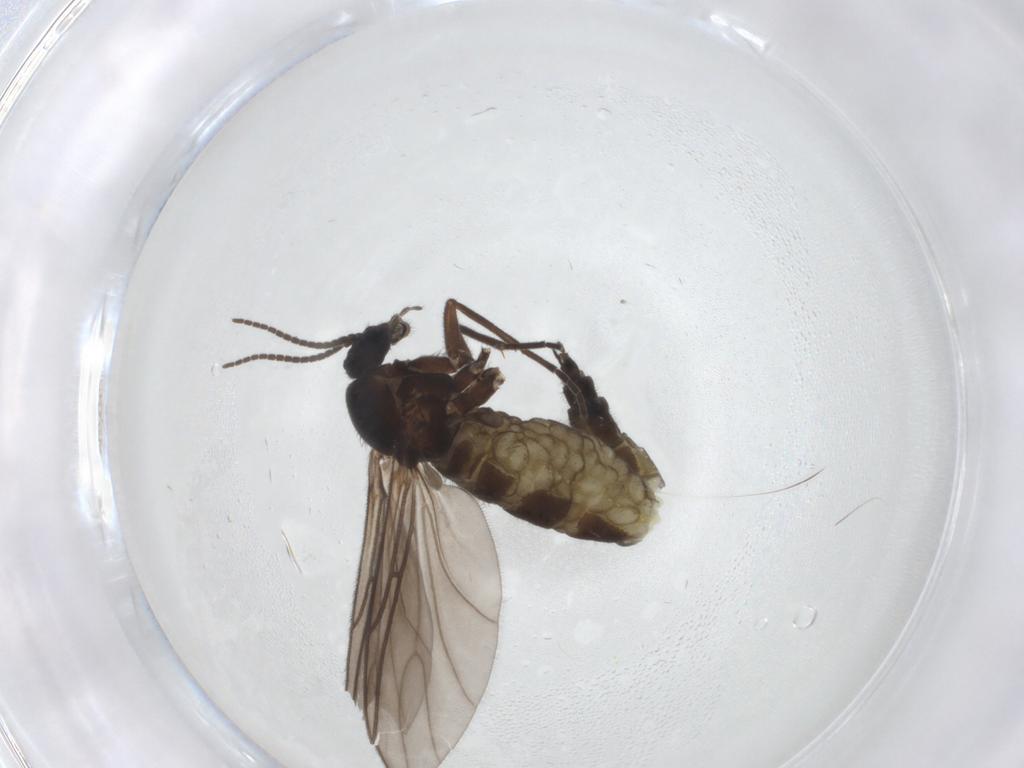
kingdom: Animalia
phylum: Arthropoda
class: Insecta
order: Diptera
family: Sciaridae
